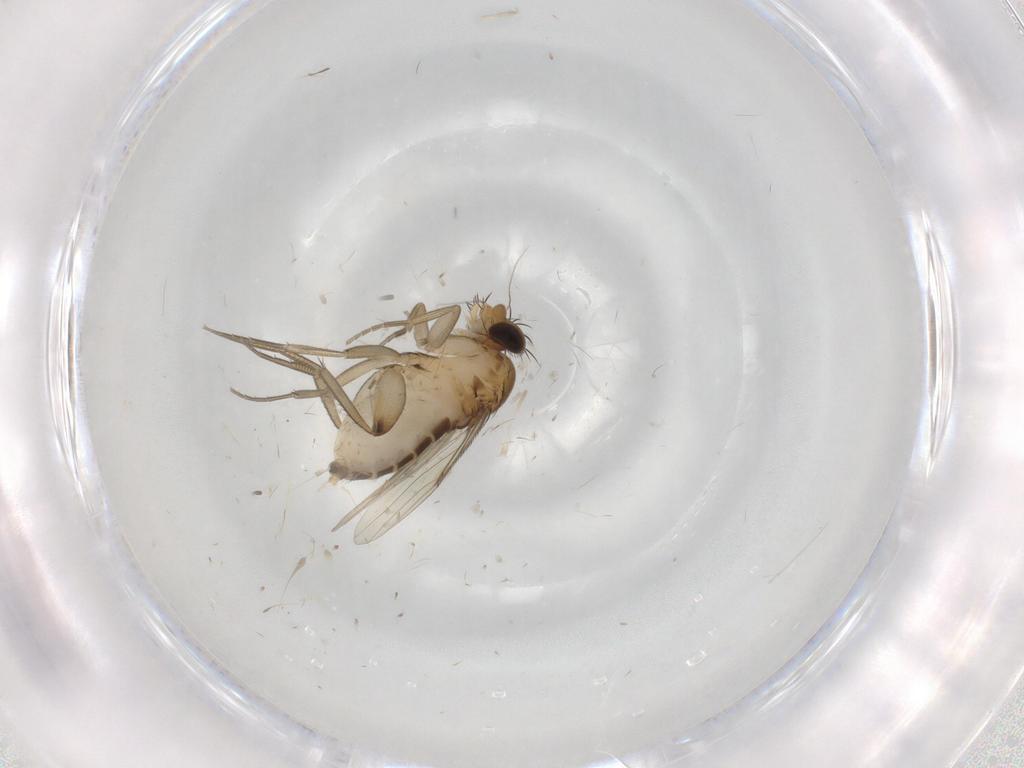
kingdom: Animalia
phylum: Arthropoda
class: Insecta
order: Diptera
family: Phoridae
